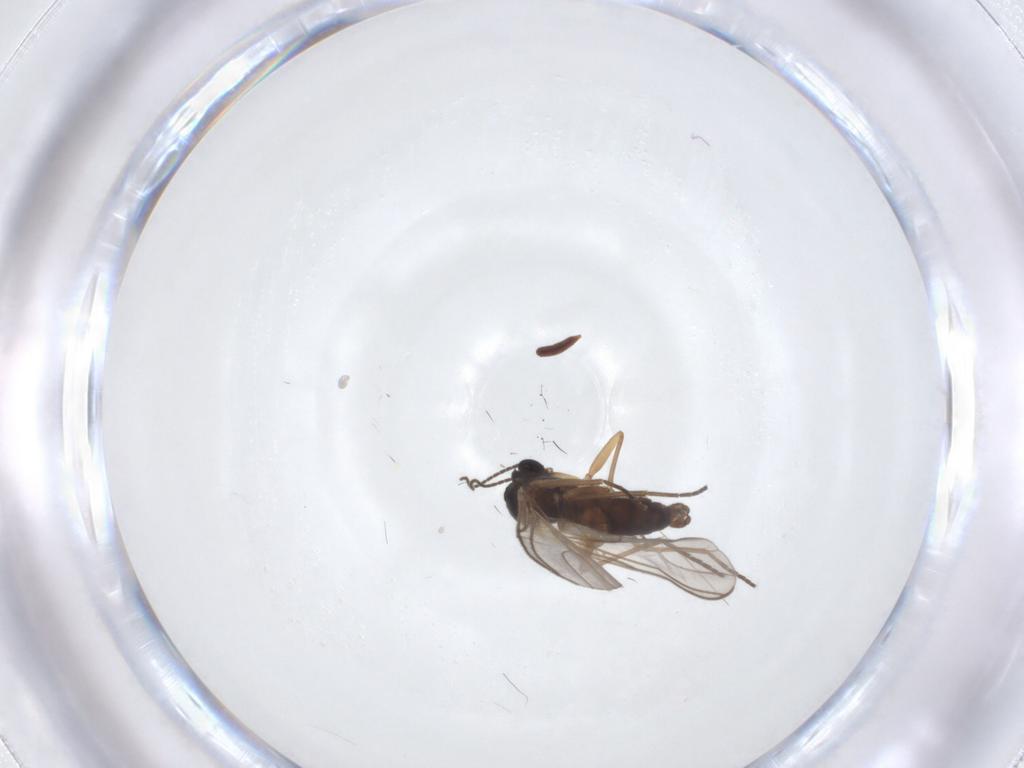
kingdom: Animalia
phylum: Arthropoda
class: Insecta
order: Diptera
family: Sciaridae
